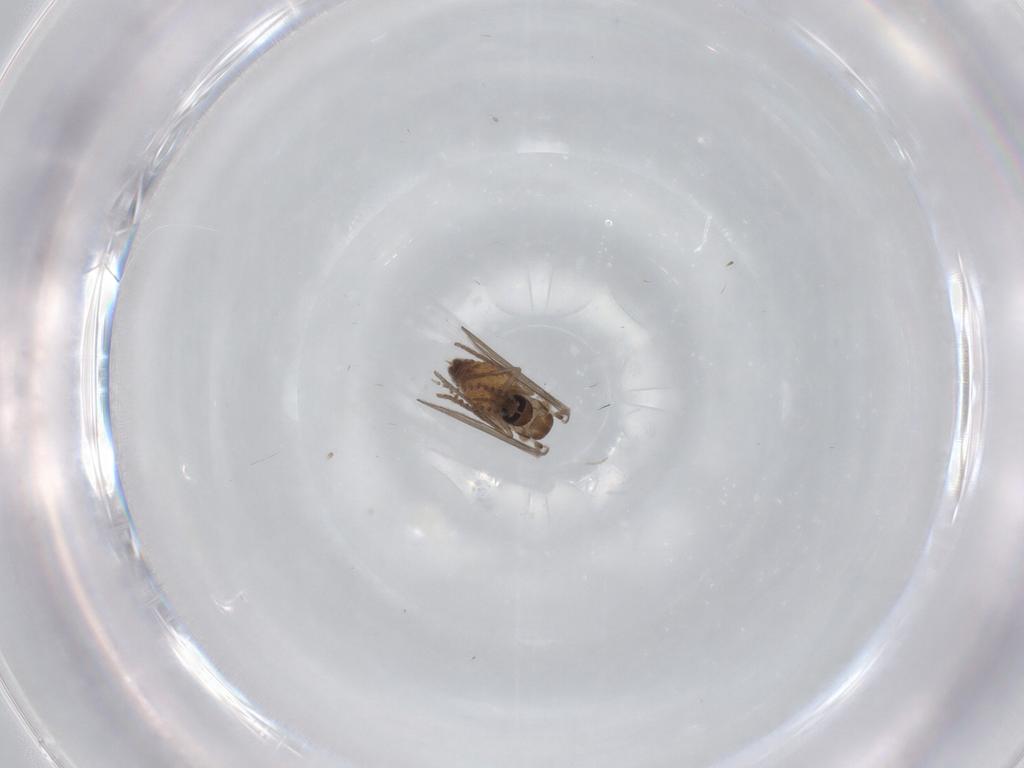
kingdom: Animalia
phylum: Arthropoda
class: Insecta
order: Diptera
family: Psychodidae
